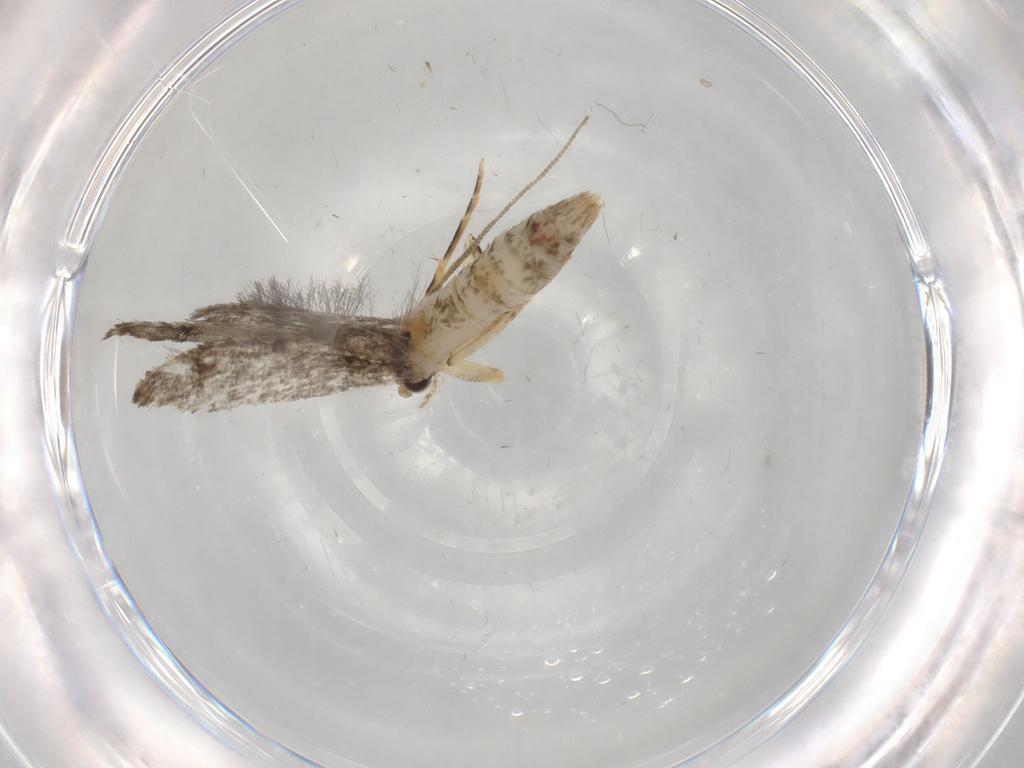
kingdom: Animalia
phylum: Arthropoda
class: Insecta
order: Lepidoptera
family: Tineidae
